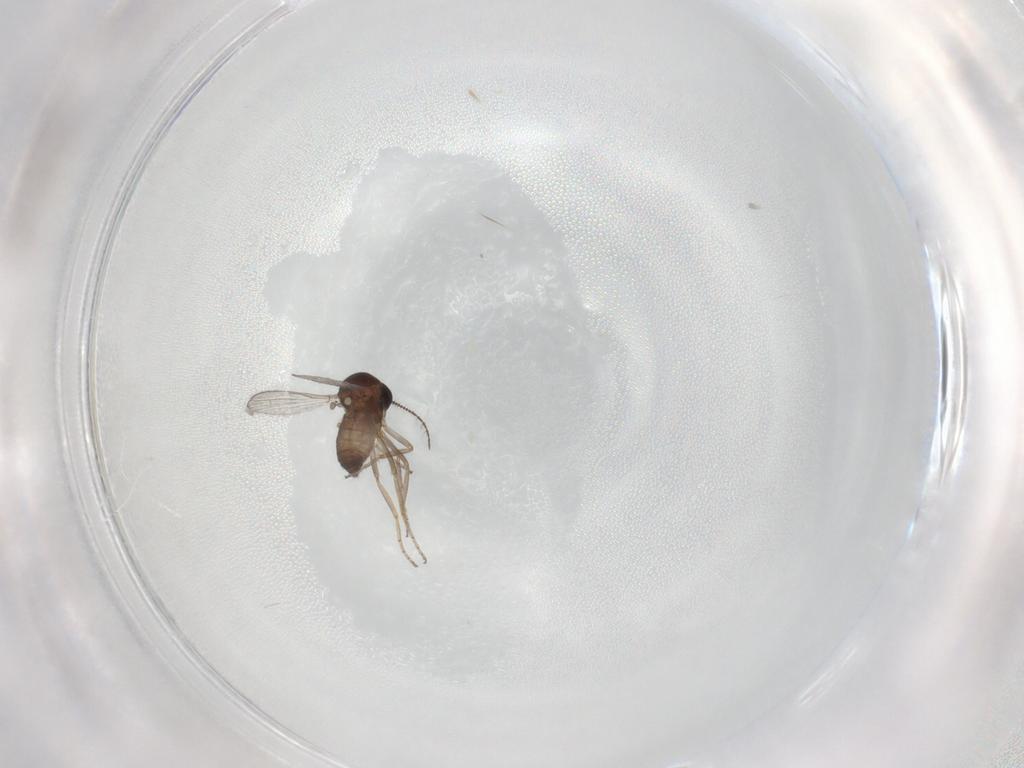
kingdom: Animalia
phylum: Arthropoda
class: Insecta
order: Diptera
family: Ceratopogonidae
